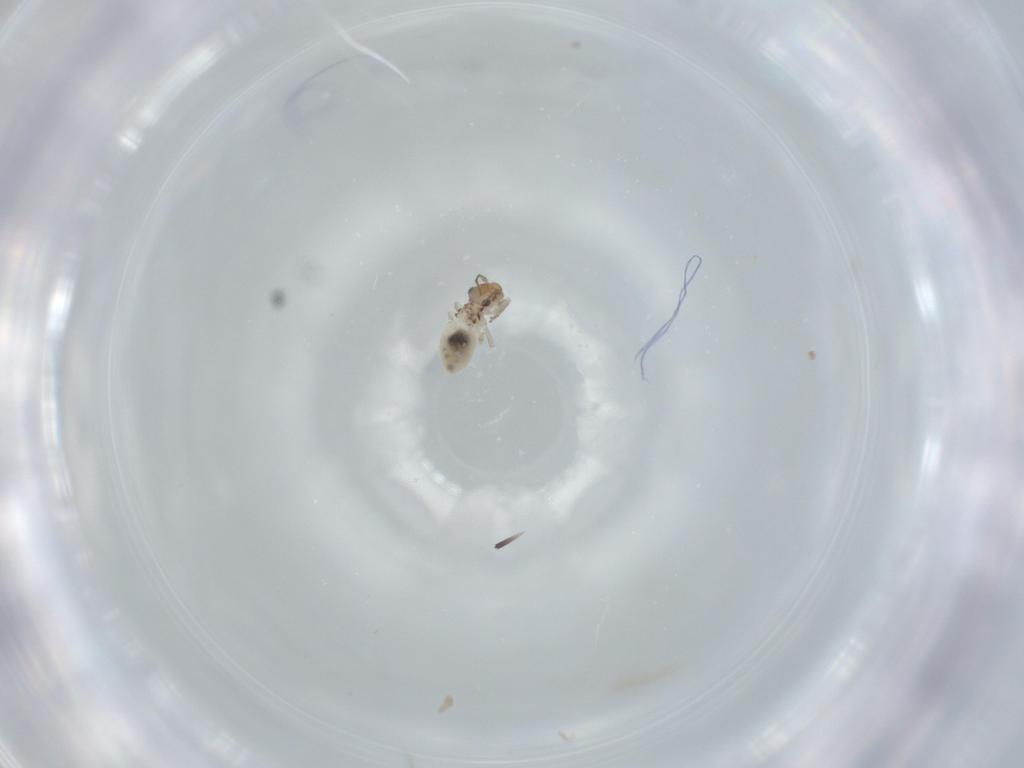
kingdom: Animalia
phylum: Arthropoda
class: Insecta
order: Psocodea
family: Lepidopsocidae
